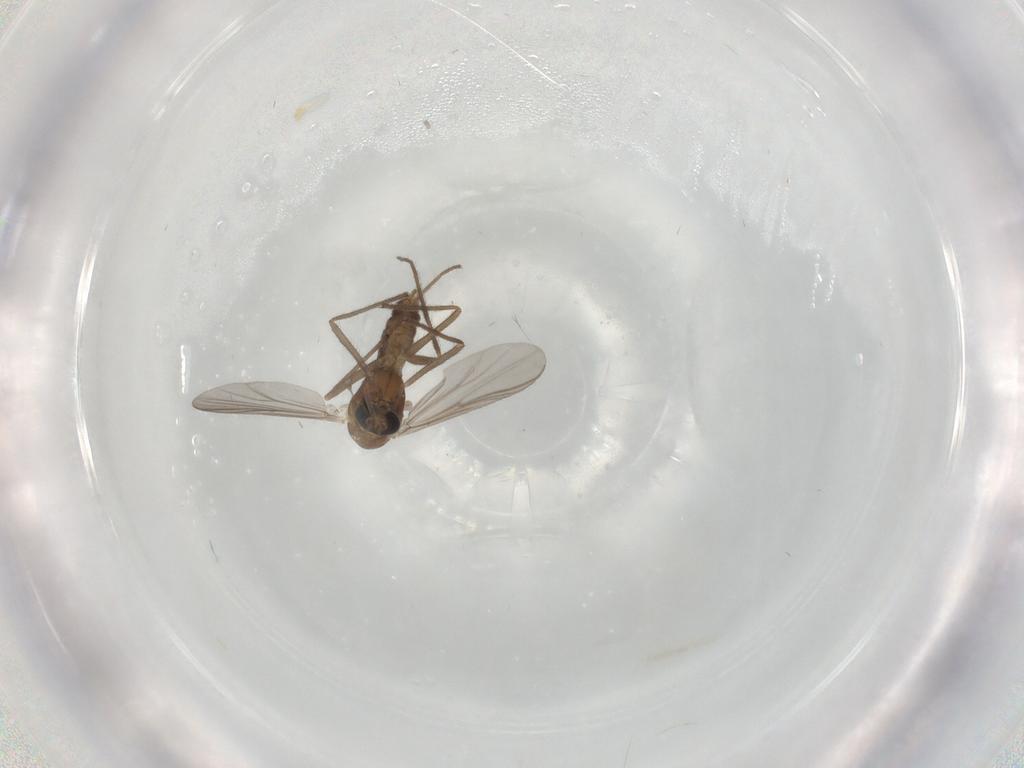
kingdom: Animalia
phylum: Arthropoda
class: Insecta
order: Diptera
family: Chironomidae
